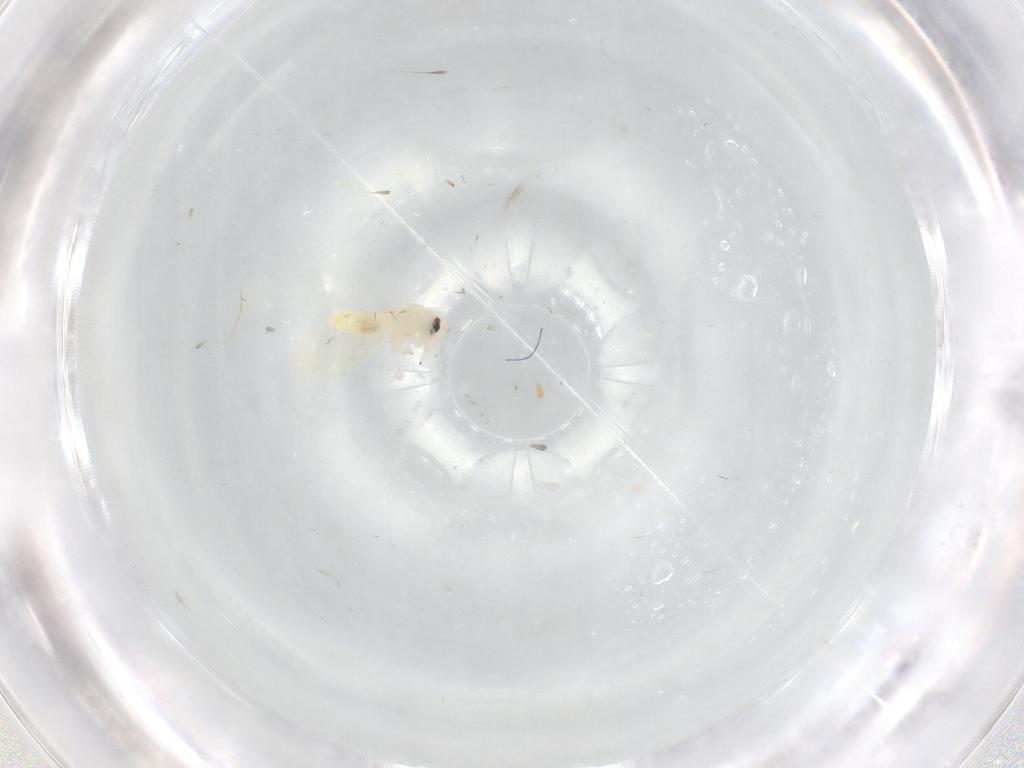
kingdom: Animalia
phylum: Arthropoda
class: Insecta
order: Hemiptera
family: Cicadellidae
